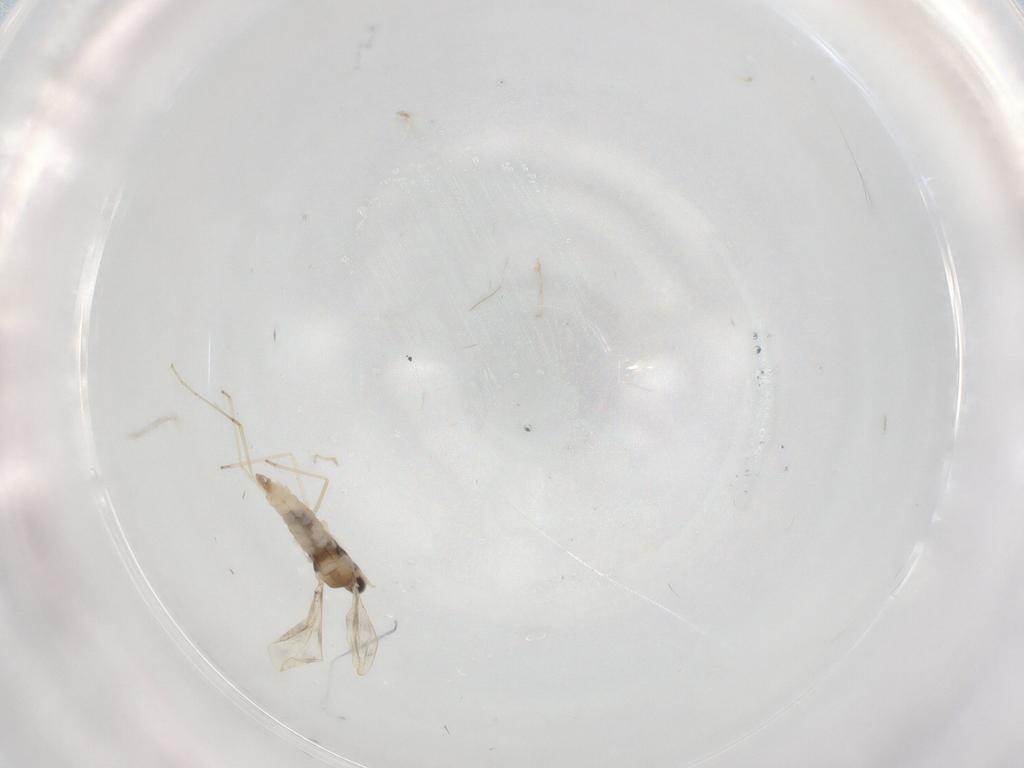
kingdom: Animalia
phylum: Arthropoda
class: Insecta
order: Diptera
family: Cecidomyiidae
